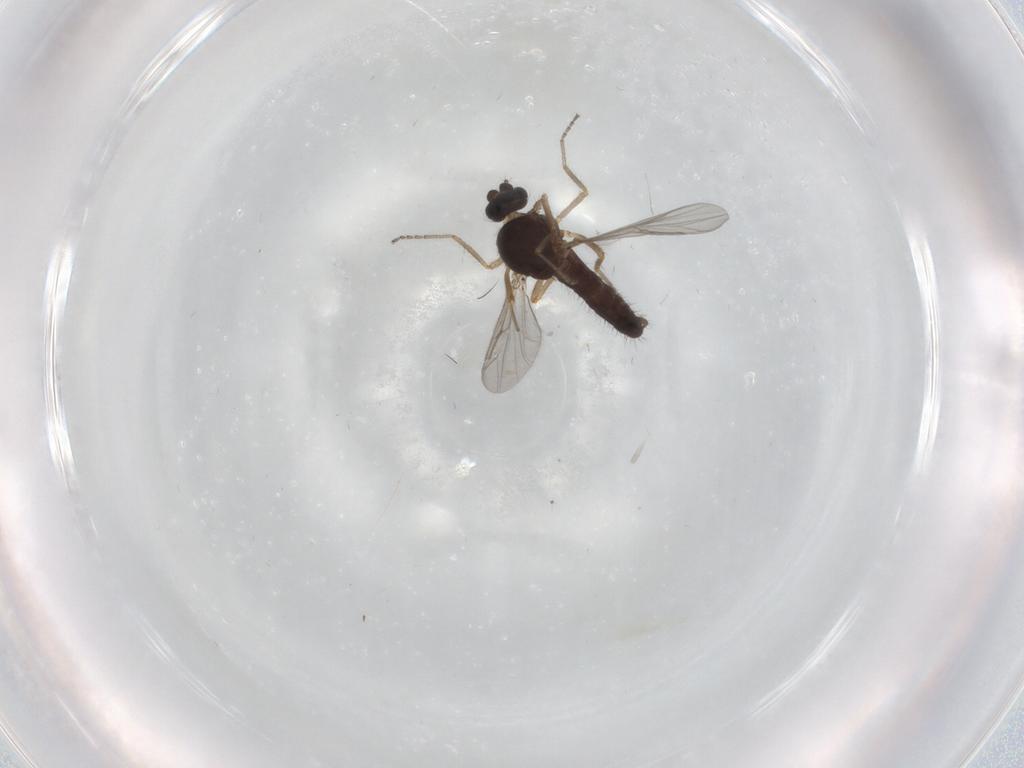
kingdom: Animalia
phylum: Arthropoda
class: Insecta
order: Diptera
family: Ceratopogonidae
